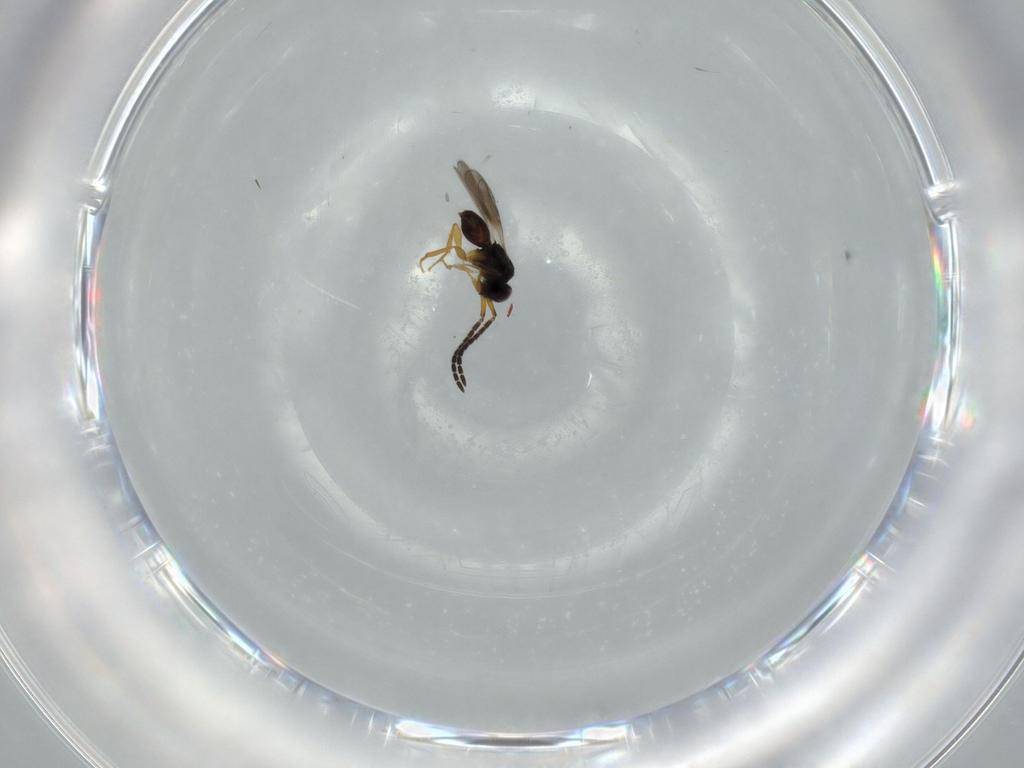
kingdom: Animalia
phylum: Arthropoda
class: Insecta
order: Hymenoptera
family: Ceraphronidae
